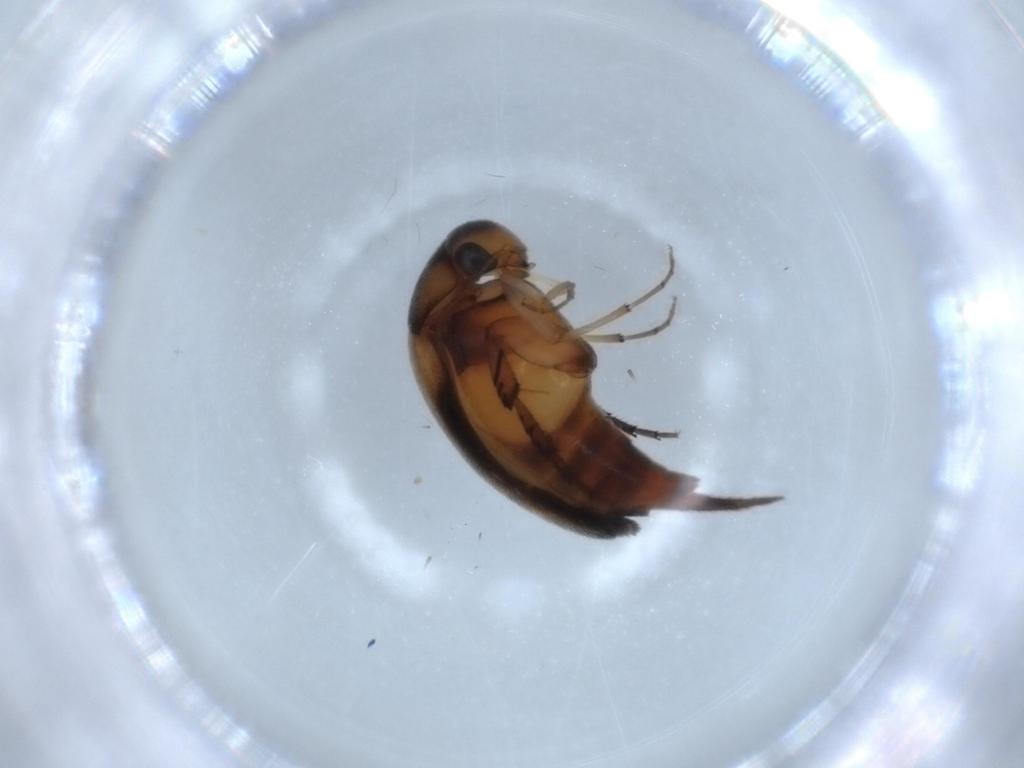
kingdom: Animalia
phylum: Arthropoda
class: Insecta
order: Coleoptera
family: Mordellidae
